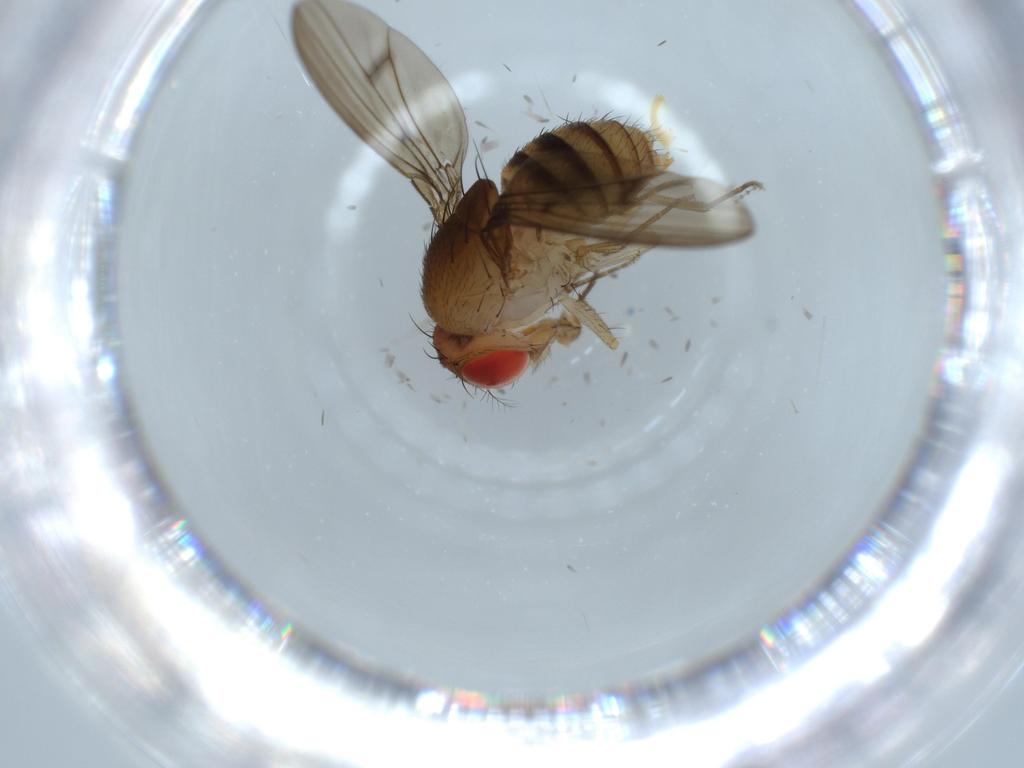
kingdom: Animalia
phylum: Arthropoda
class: Insecta
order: Diptera
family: Drosophilidae
